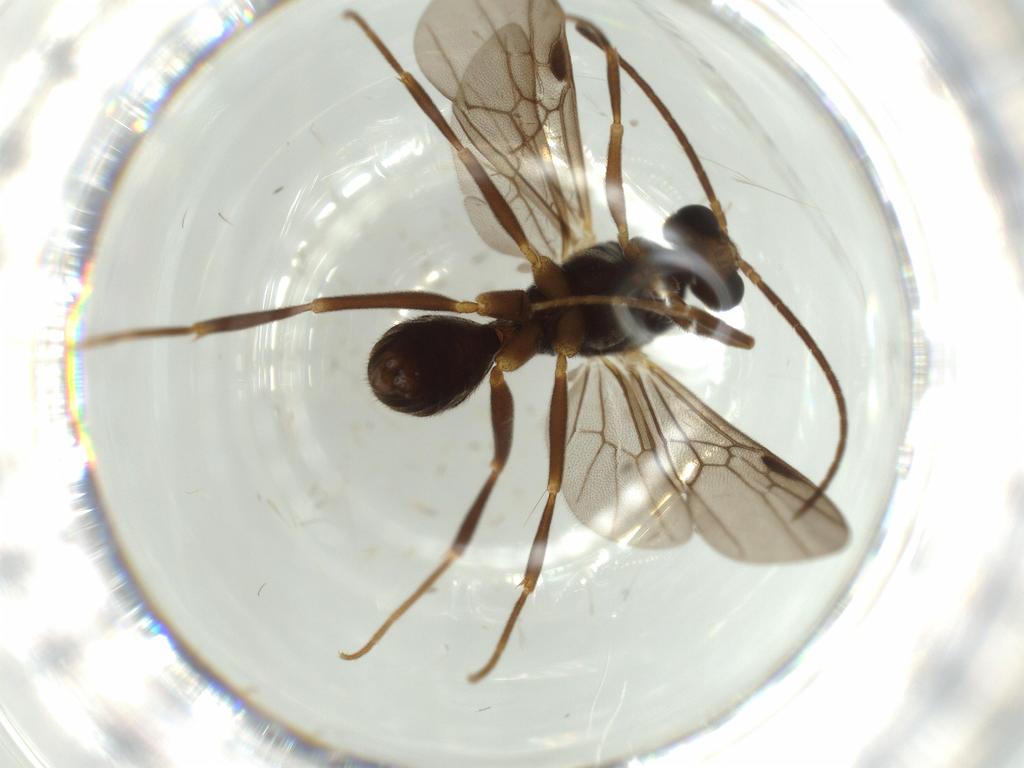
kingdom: Animalia
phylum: Arthropoda
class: Insecta
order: Hymenoptera
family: Formicidae
